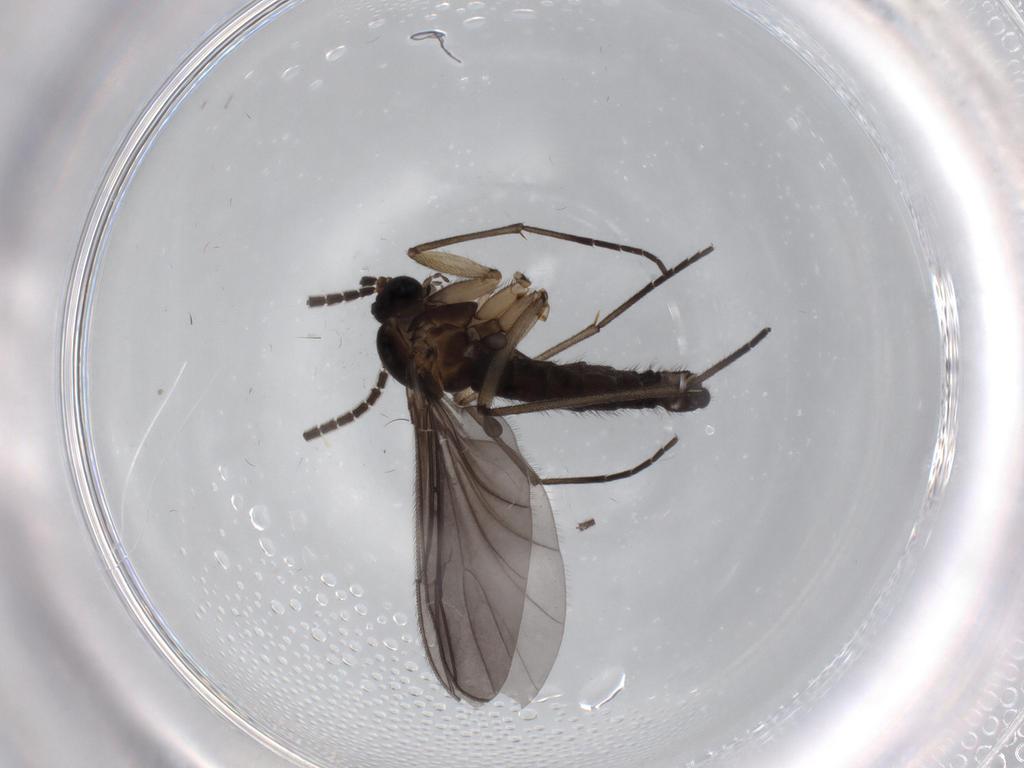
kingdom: Animalia
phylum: Arthropoda
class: Insecta
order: Diptera
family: Sciaridae
